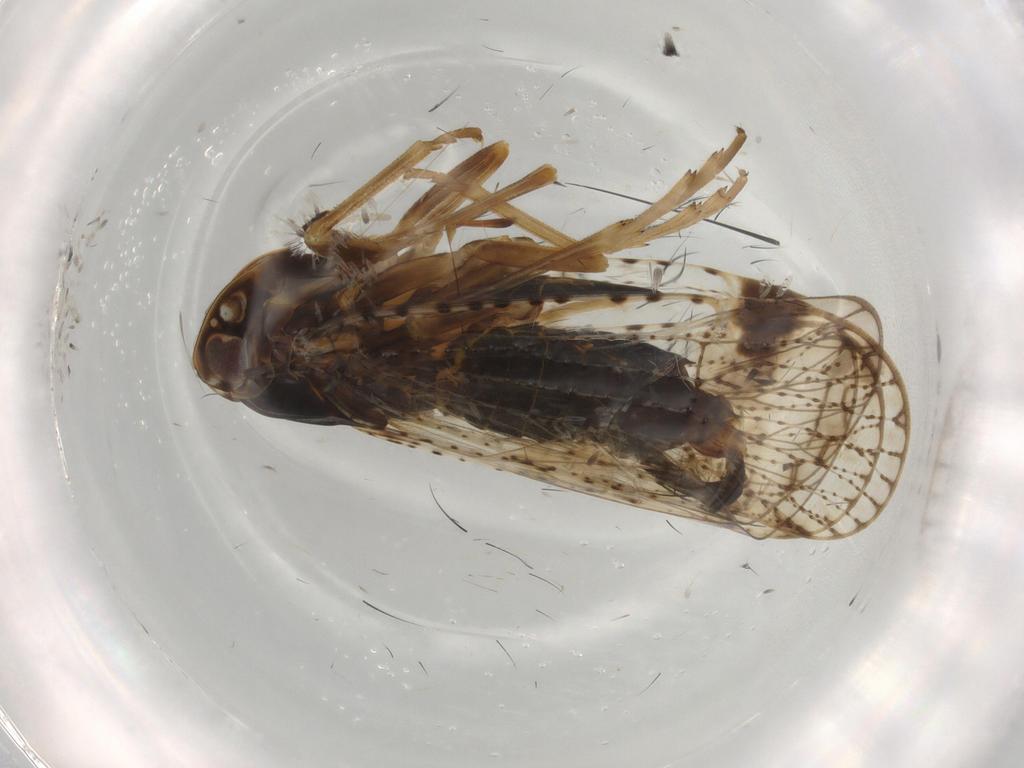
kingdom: Animalia
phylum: Arthropoda
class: Insecta
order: Hemiptera
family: Cixiidae
